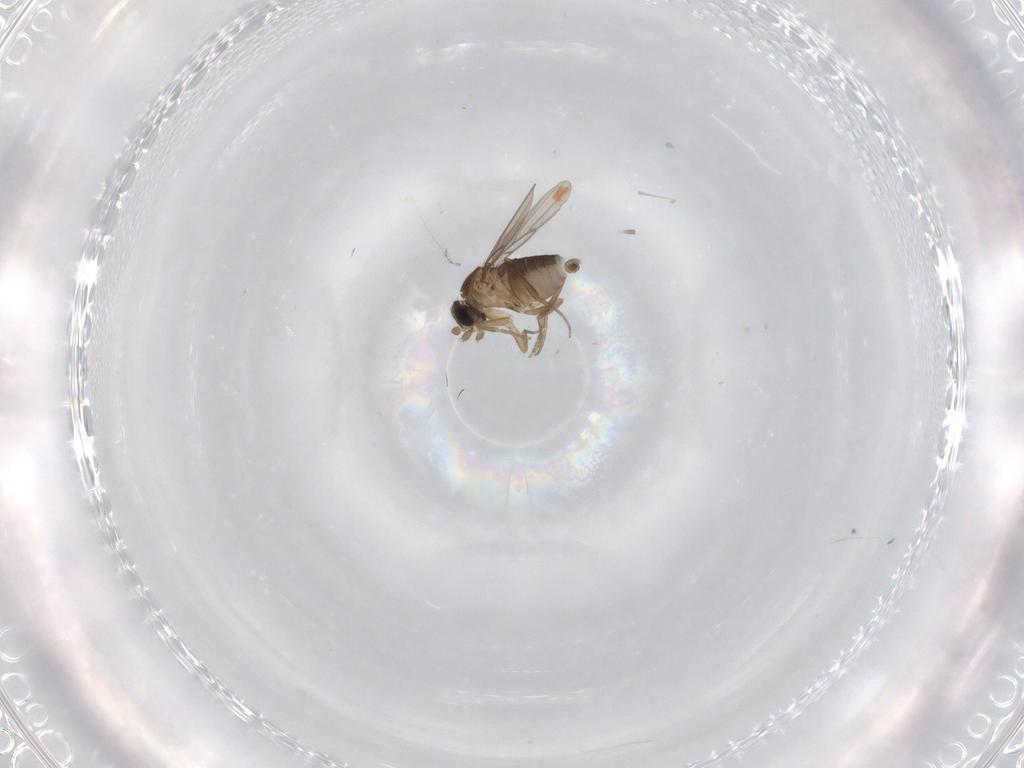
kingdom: Animalia
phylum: Arthropoda
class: Insecta
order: Diptera
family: Cecidomyiidae
